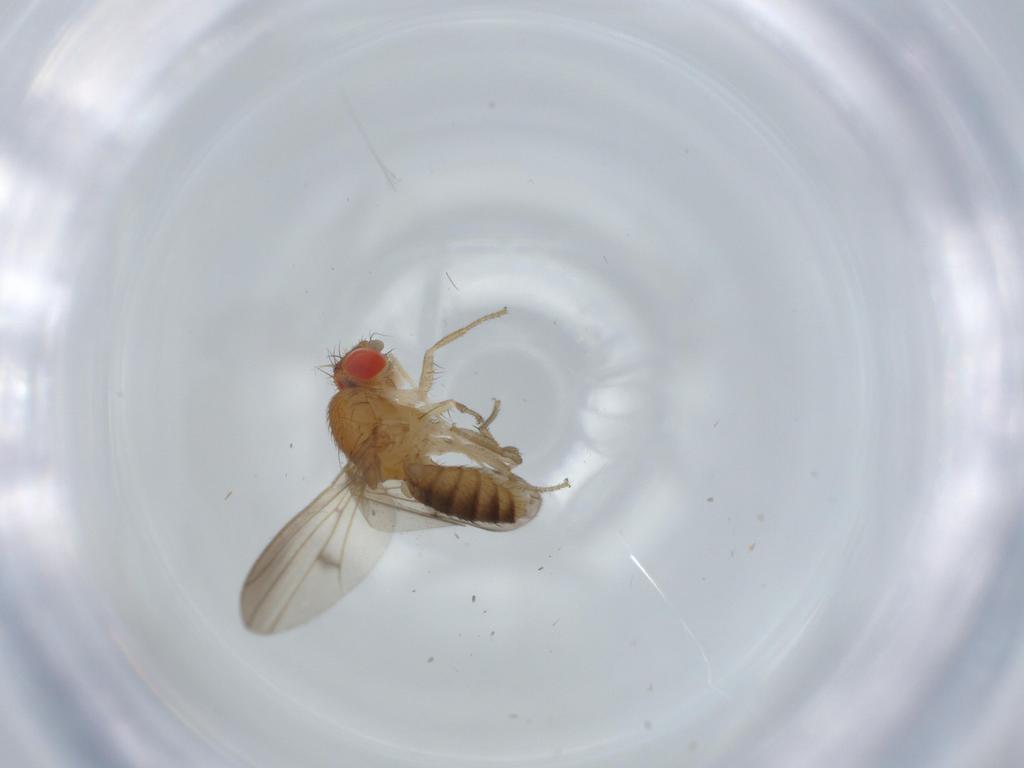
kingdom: Animalia
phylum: Arthropoda
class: Insecta
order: Diptera
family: Drosophilidae
